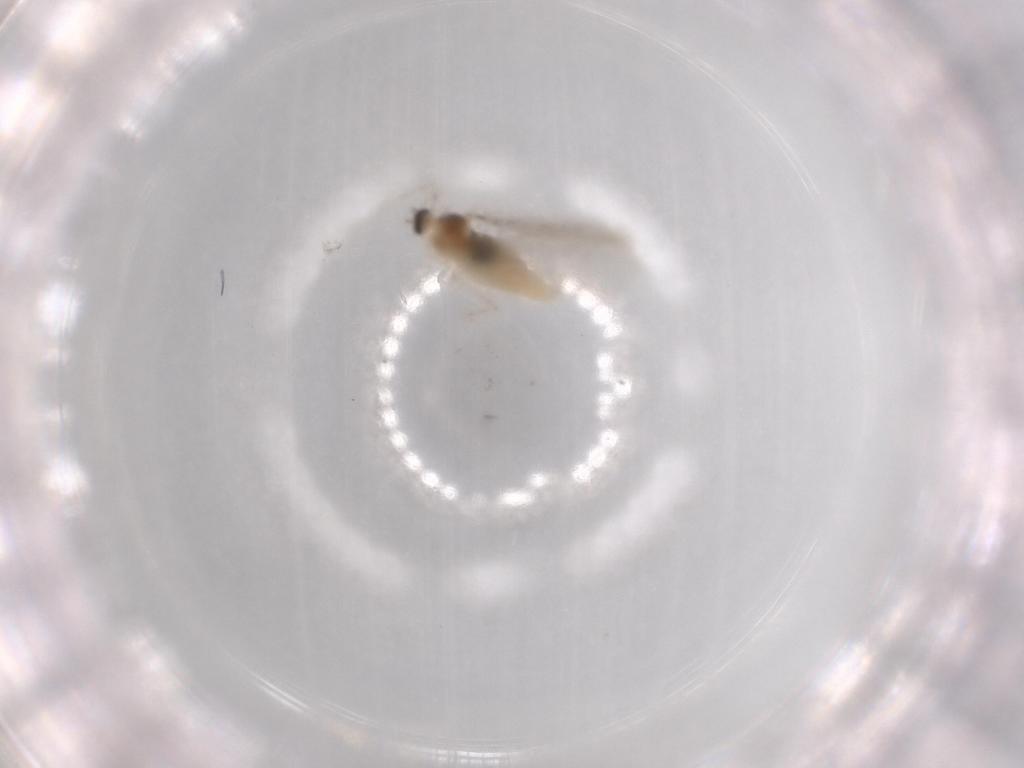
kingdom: Animalia
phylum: Arthropoda
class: Insecta
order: Diptera
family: Cecidomyiidae
